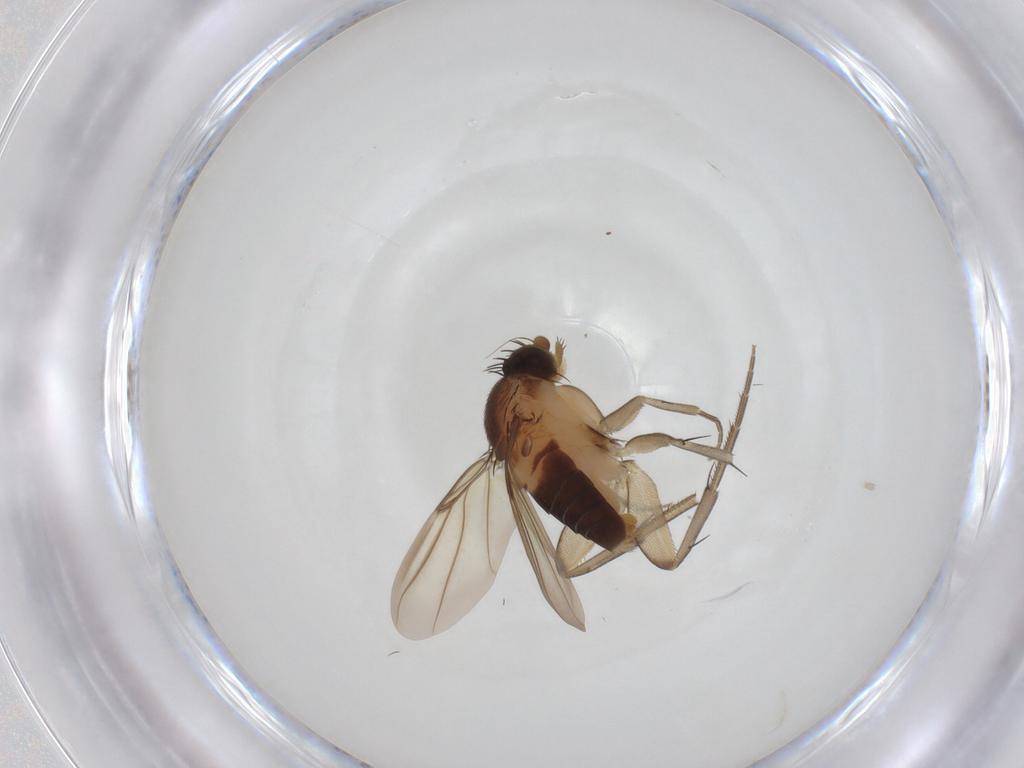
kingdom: Animalia
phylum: Arthropoda
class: Insecta
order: Diptera
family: Phoridae
